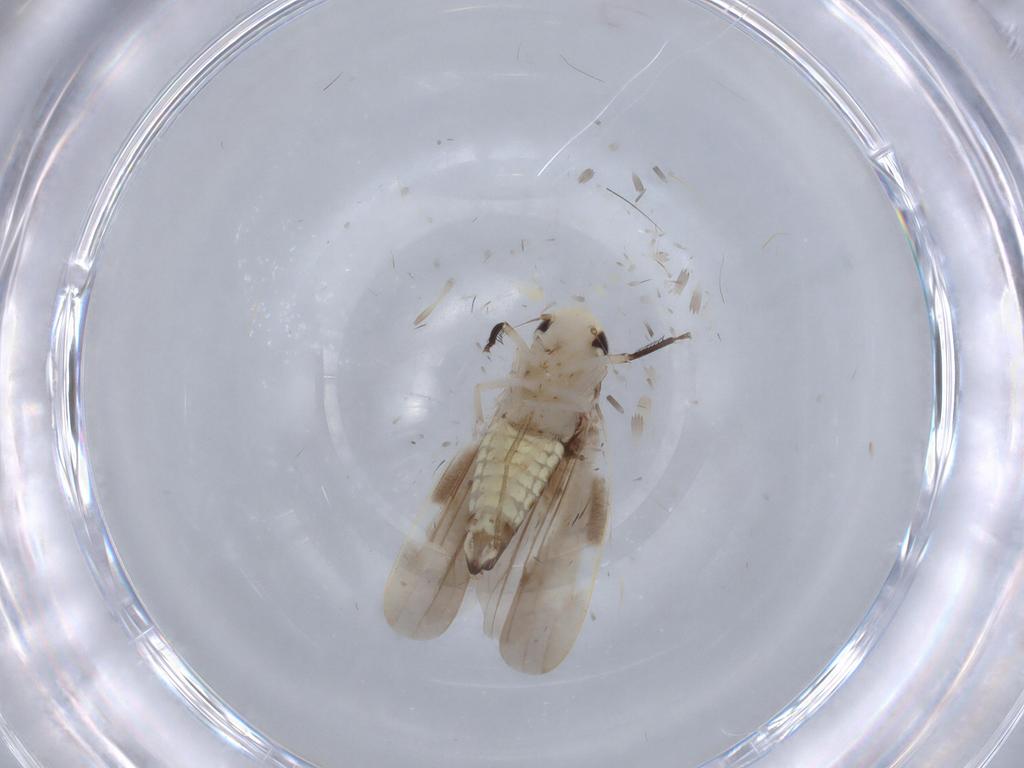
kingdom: Animalia
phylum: Arthropoda
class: Insecta
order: Hemiptera
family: Cicadellidae
